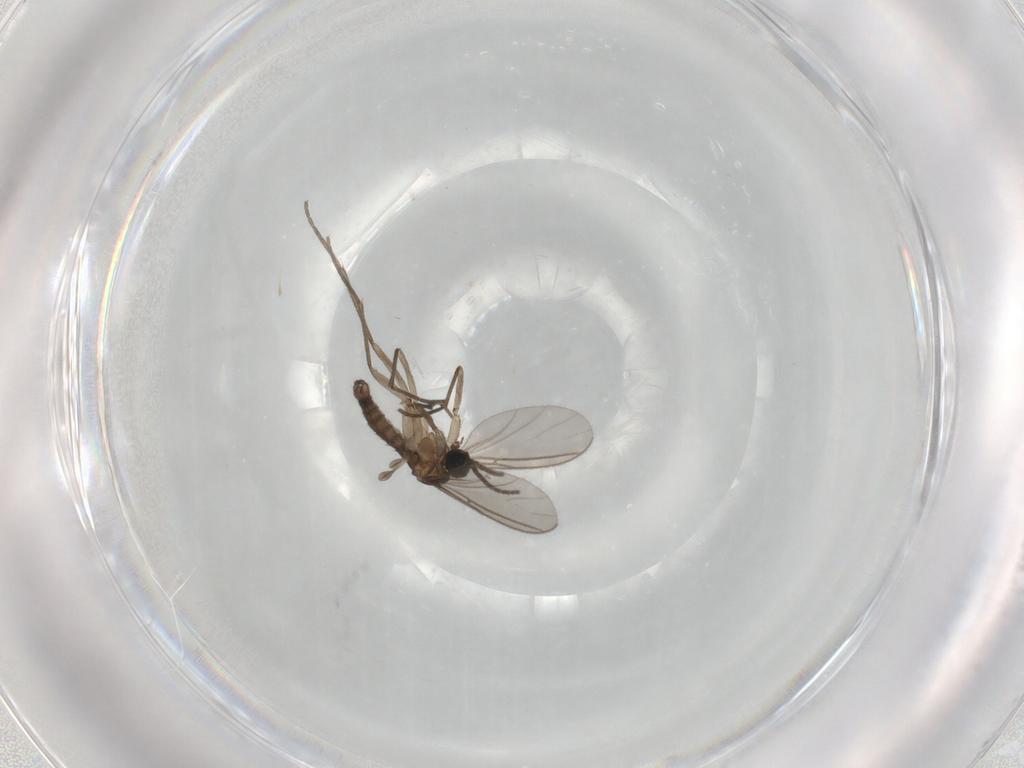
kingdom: Animalia
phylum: Arthropoda
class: Insecta
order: Diptera
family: Sciaridae
